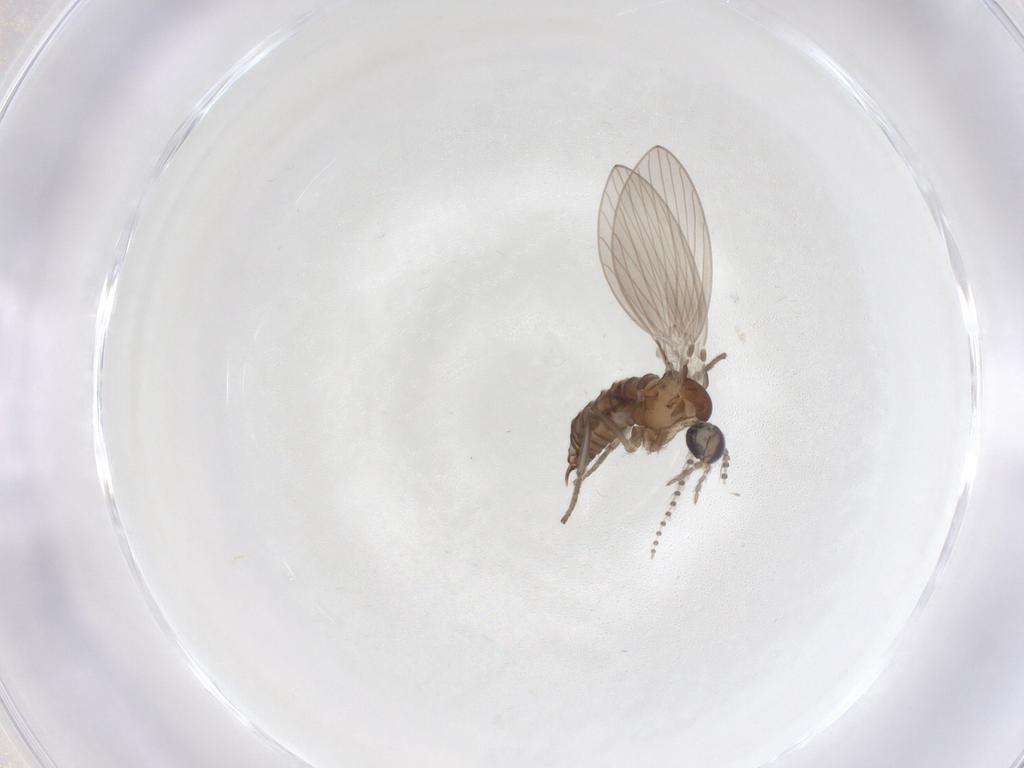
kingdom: Animalia
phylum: Arthropoda
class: Insecta
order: Diptera
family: Psychodidae
